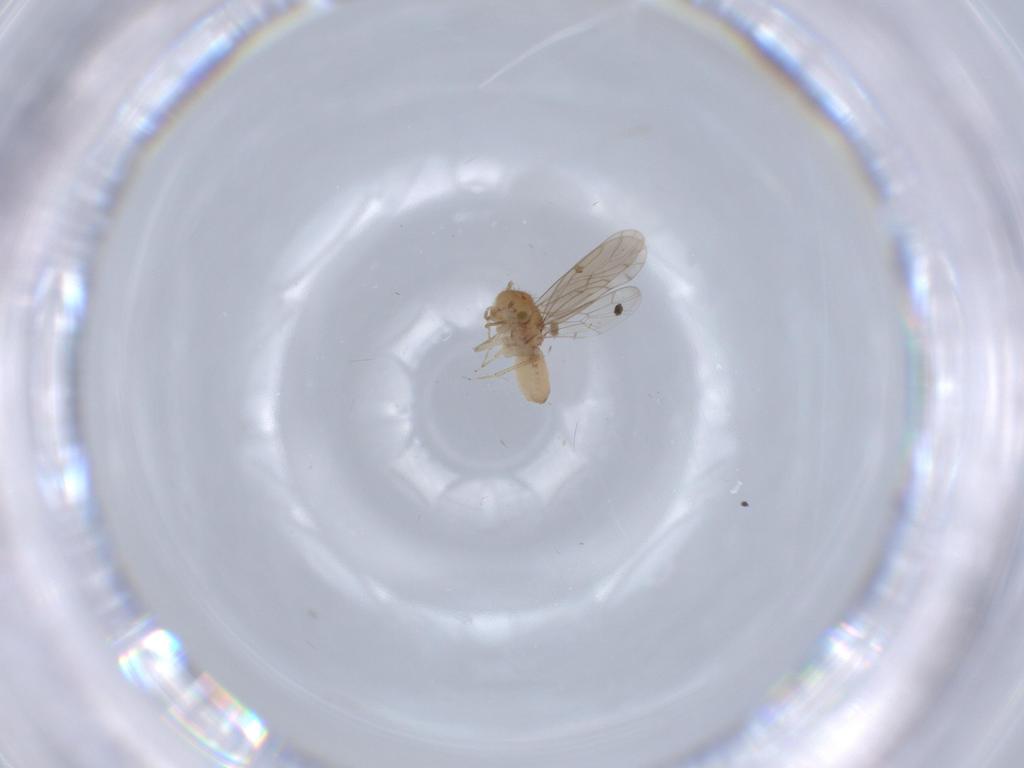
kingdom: Animalia
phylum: Arthropoda
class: Insecta
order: Psocodea
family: Ectopsocidae
